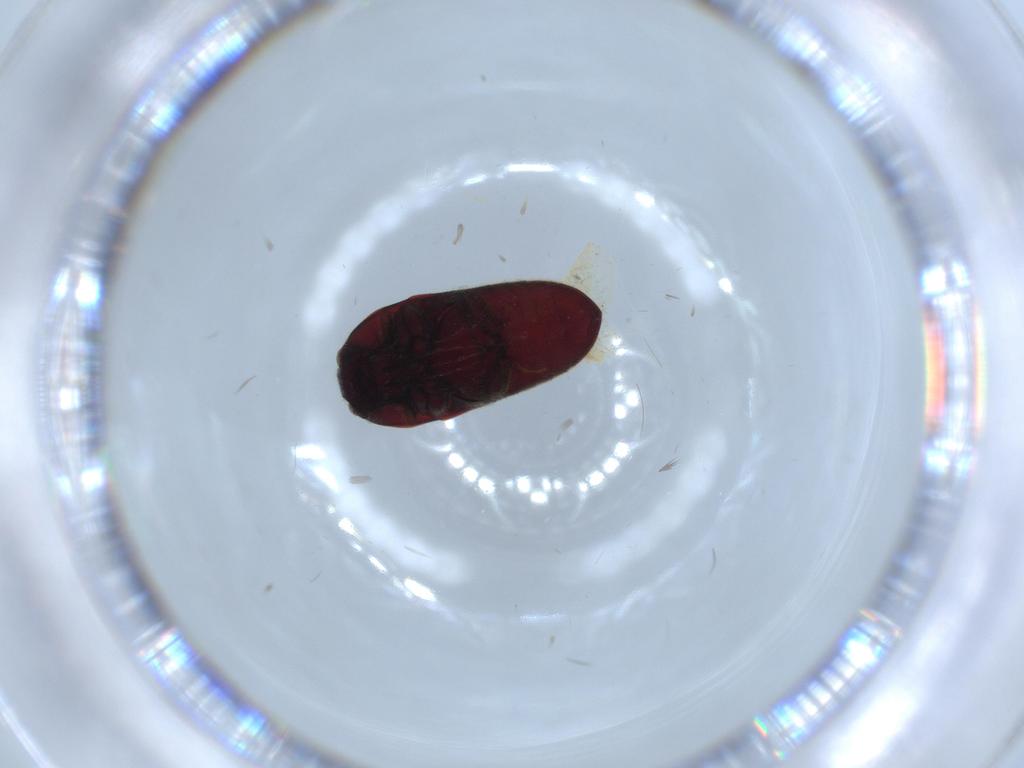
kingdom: Animalia
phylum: Arthropoda
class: Insecta
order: Coleoptera
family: Throscidae
